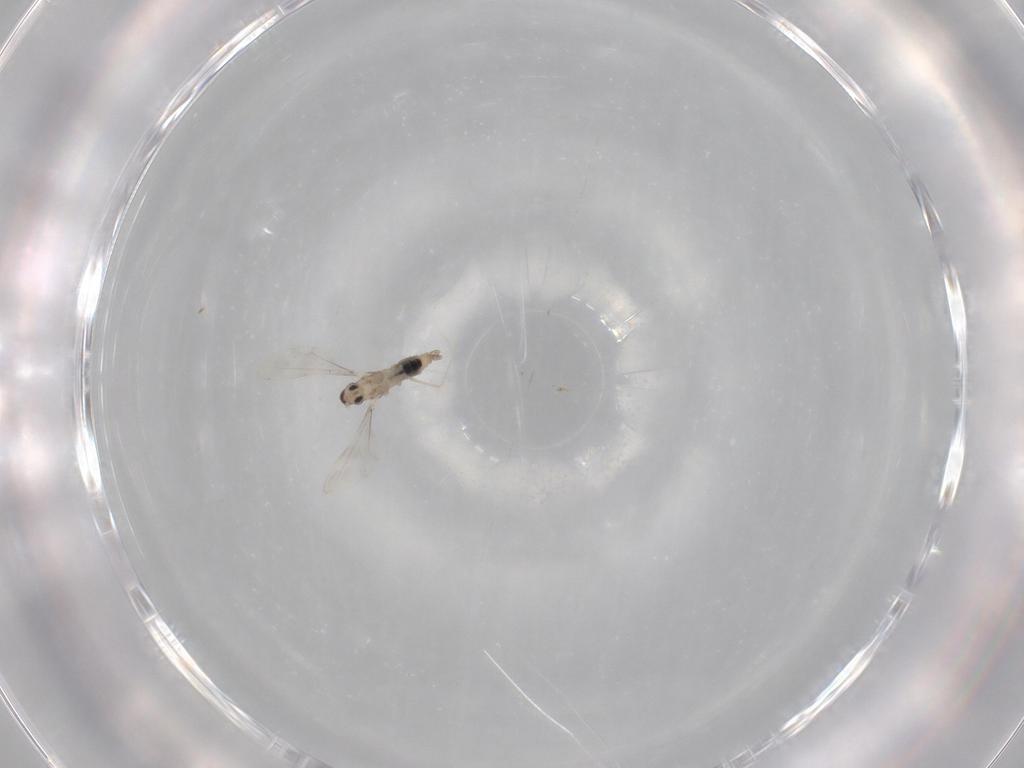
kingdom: Animalia
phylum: Arthropoda
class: Insecta
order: Diptera
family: Cecidomyiidae
